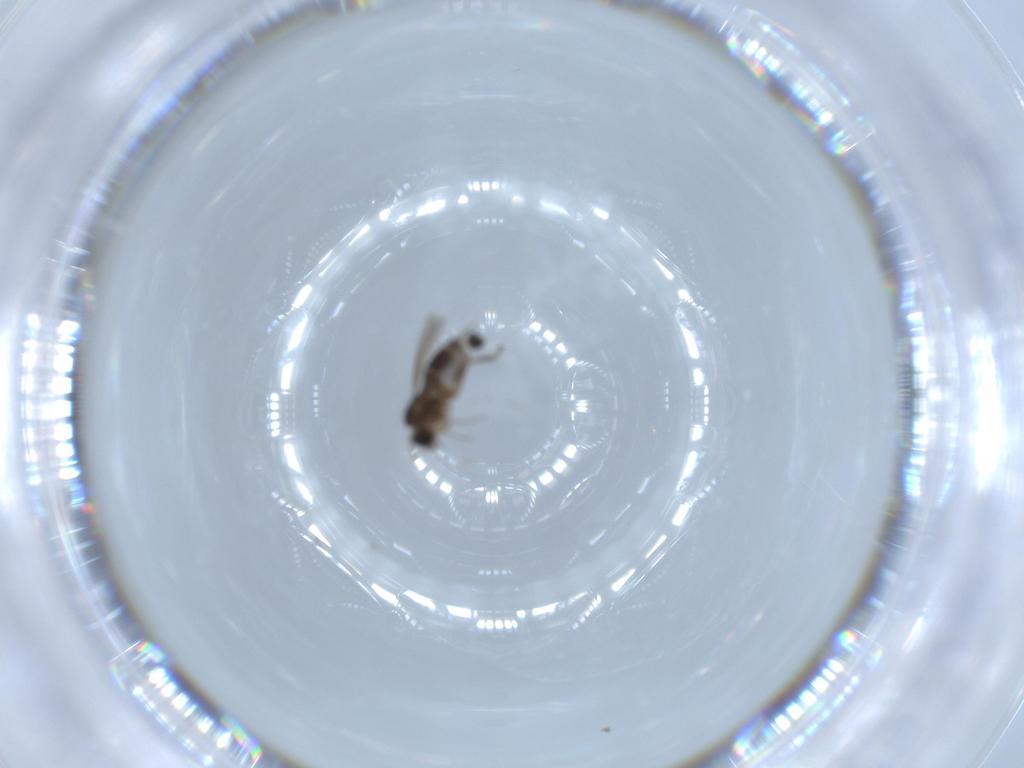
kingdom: Animalia
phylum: Arthropoda
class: Insecta
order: Diptera
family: Phoridae
